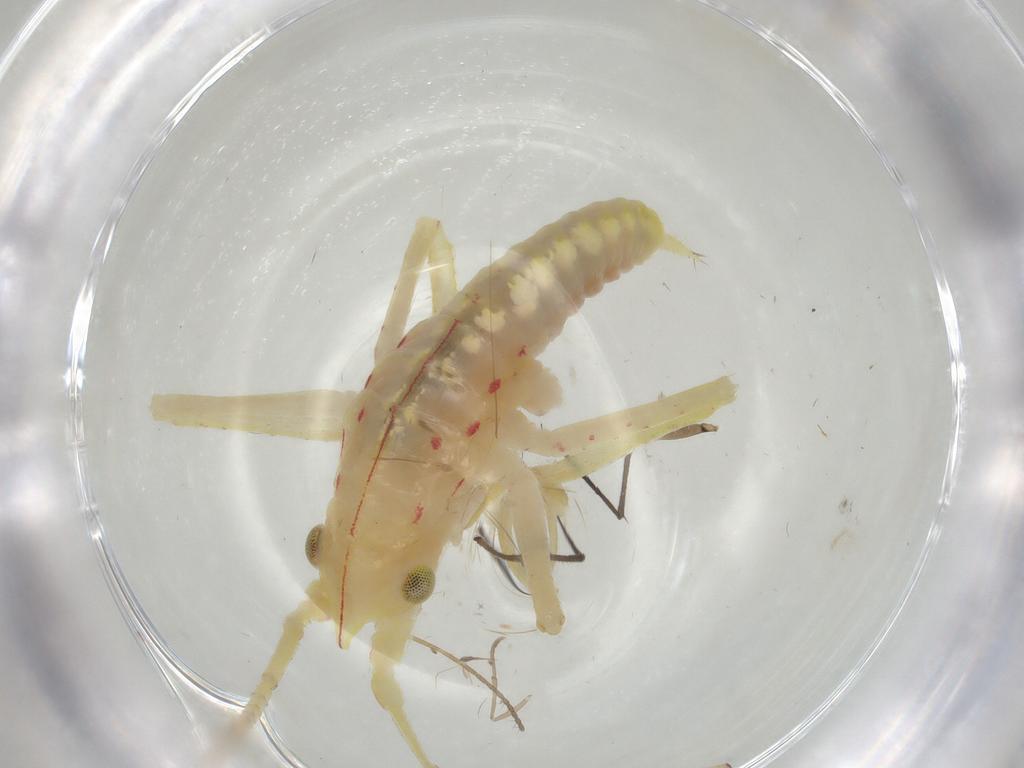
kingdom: Animalia
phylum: Arthropoda
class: Insecta
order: Orthoptera
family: Tettigoniidae
